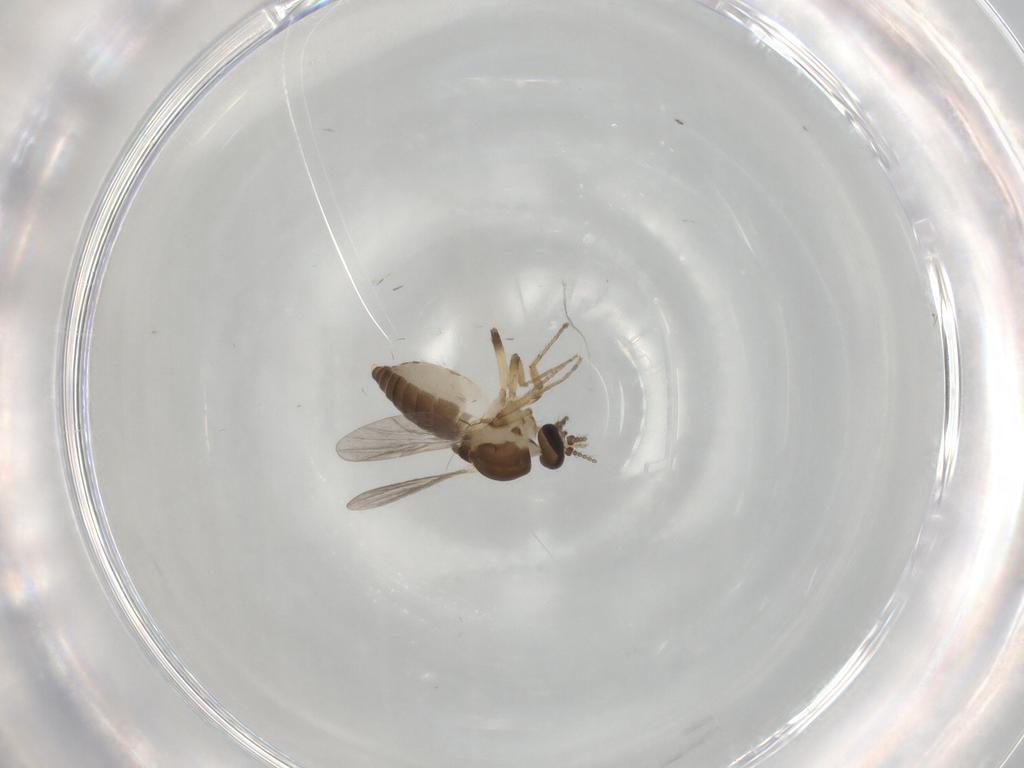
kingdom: Animalia
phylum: Arthropoda
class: Insecta
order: Diptera
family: Ceratopogonidae
